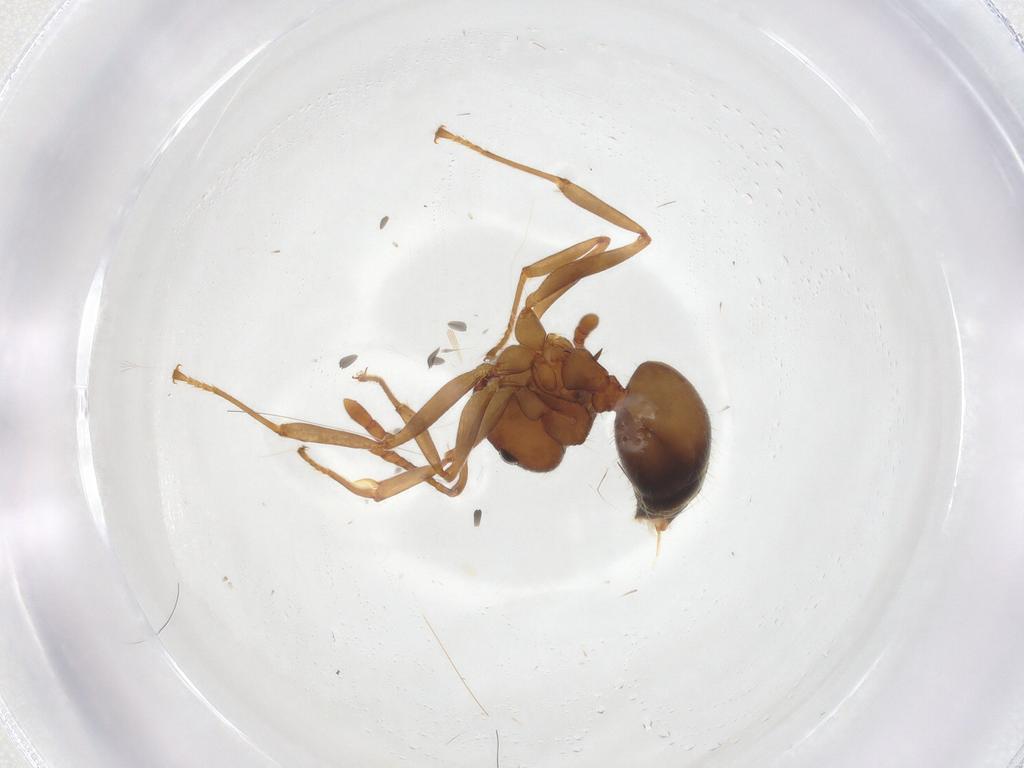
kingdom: Animalia
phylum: Arthropoda
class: Insecta
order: Hymenoptera
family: Formicidae
